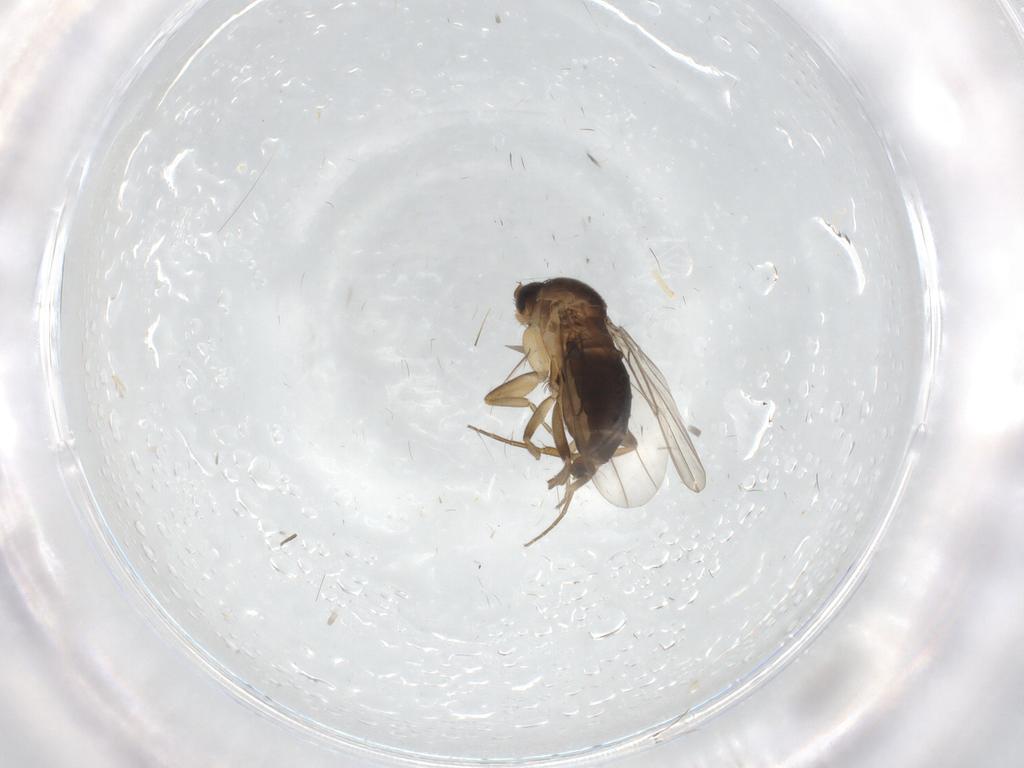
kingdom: Animalia
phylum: Arthropoda
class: Insecta
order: Diptera
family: Phoridae
